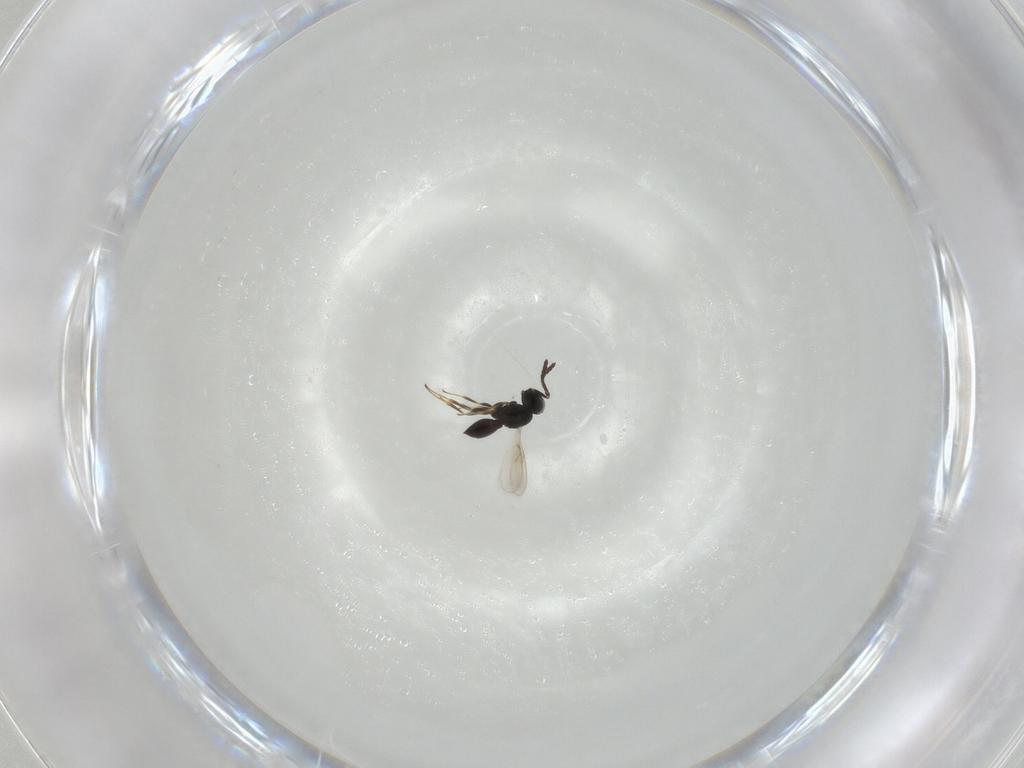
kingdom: Animalia
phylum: Arthropoda
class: Insecta
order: Hymenoptera
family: Scelionidae
